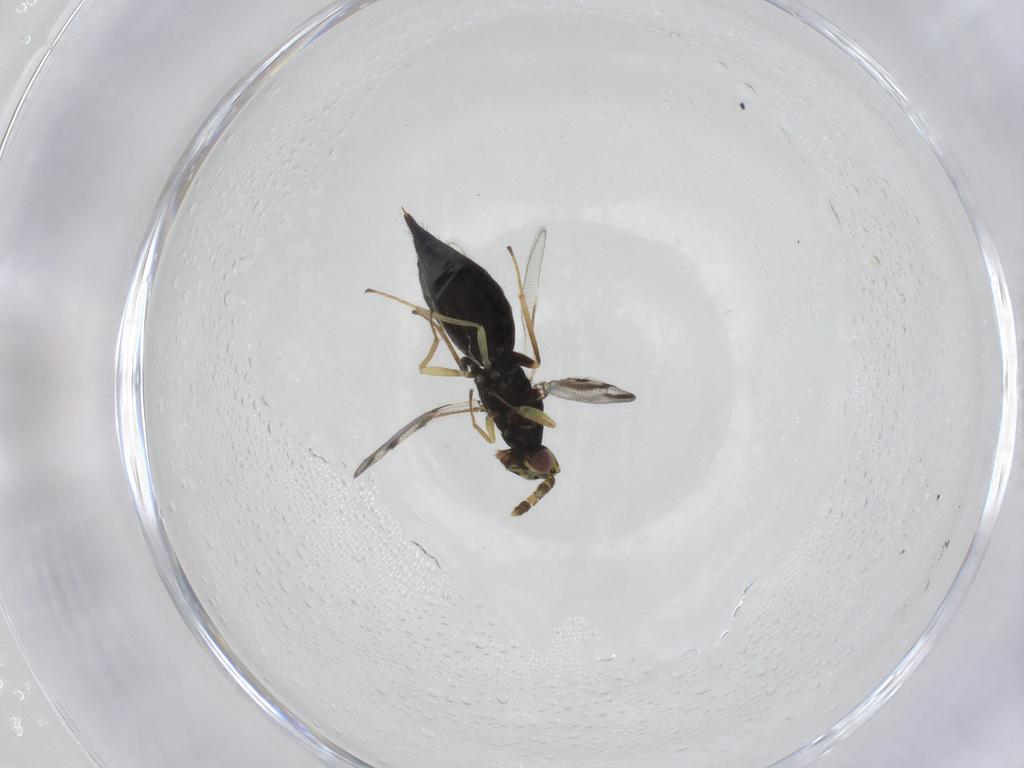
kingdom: Animalia
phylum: Arthropoda
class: Insecta
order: Hymenoptera
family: Eulophidae
